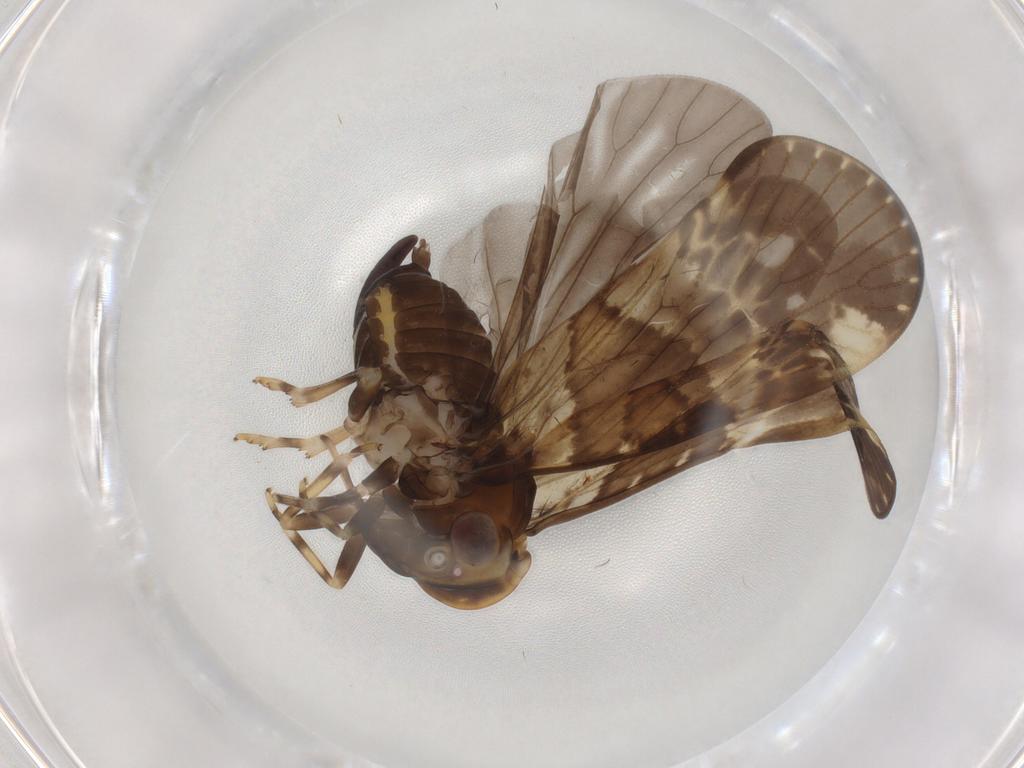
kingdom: Animalia
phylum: Arthropoda
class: Insecta
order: Hemiptera
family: Cixiidae
